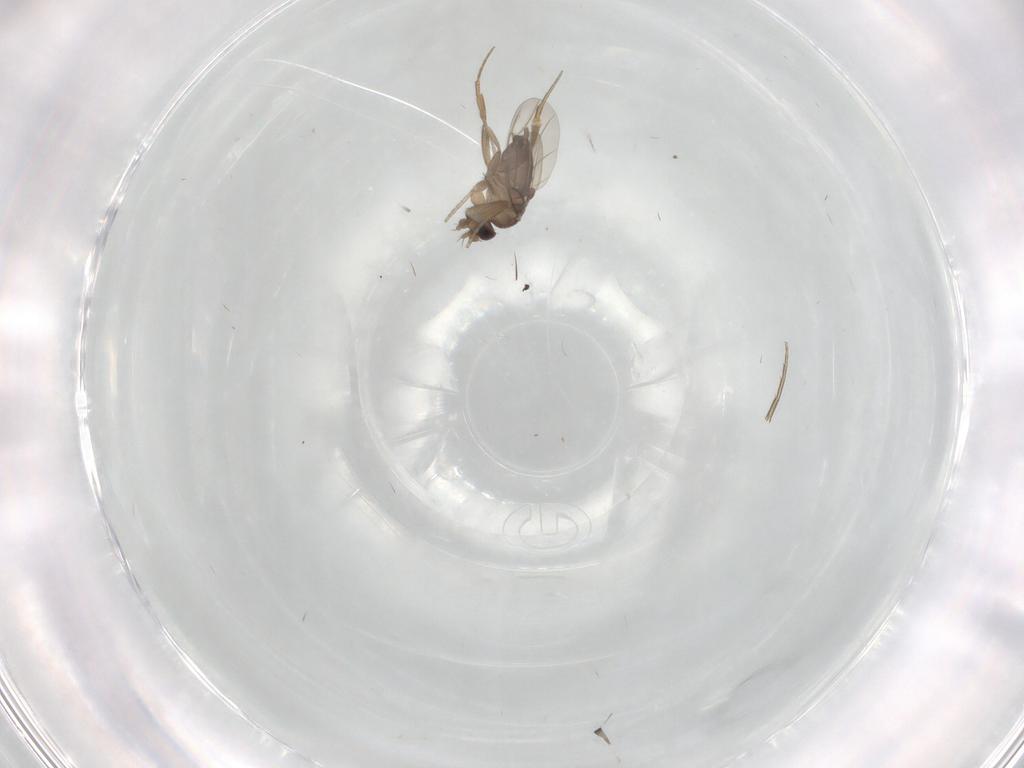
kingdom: Animalia
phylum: Arthropoda
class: Insecta
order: Diptera
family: Phoridae
